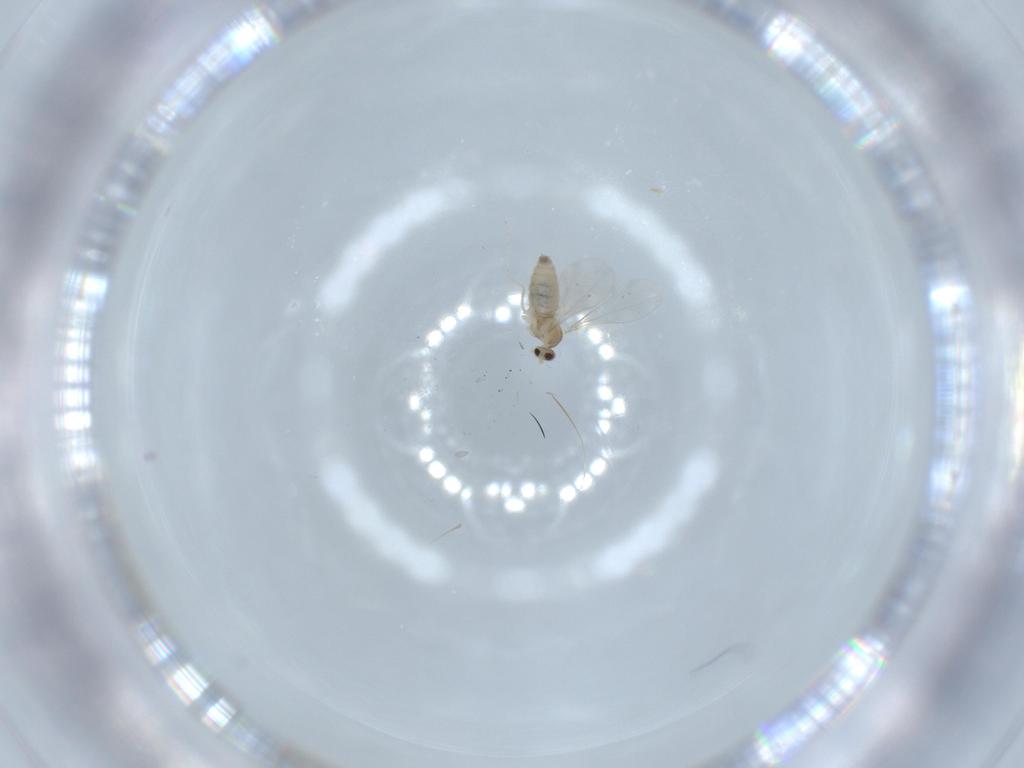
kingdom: Animalia
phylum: Arthropoda
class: Insecta
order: Diptera
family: Cecidomyiidae
